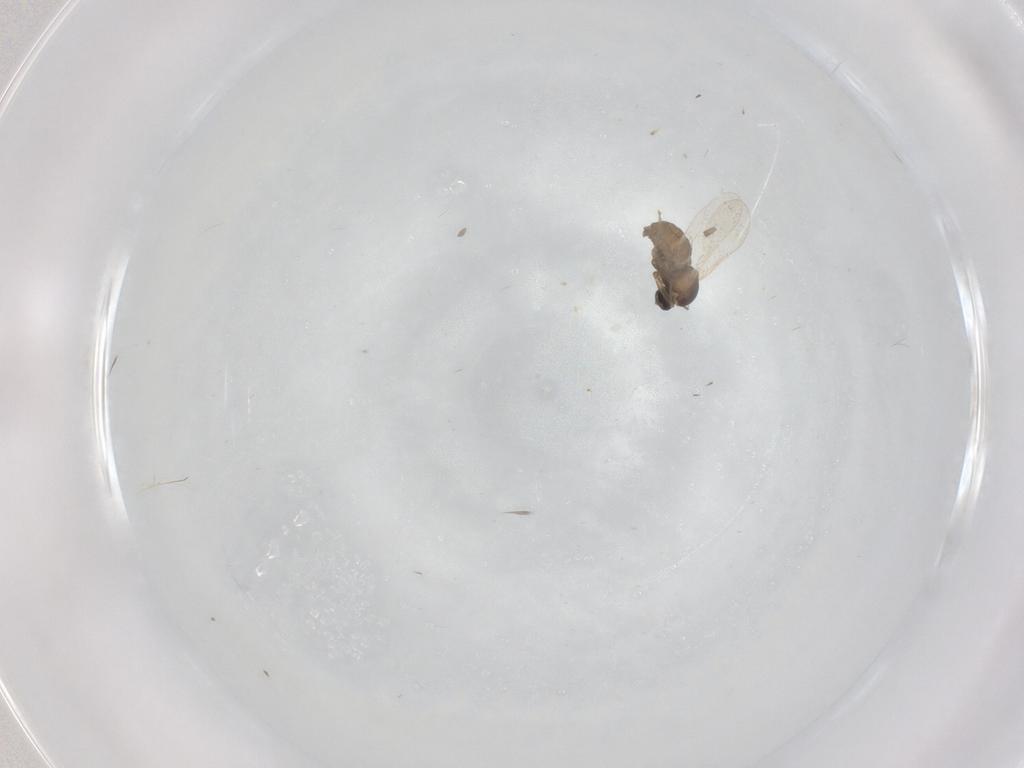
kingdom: Animalia
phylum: Arthropoda
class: Insecta
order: Diptera
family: Cecidomyiidae
